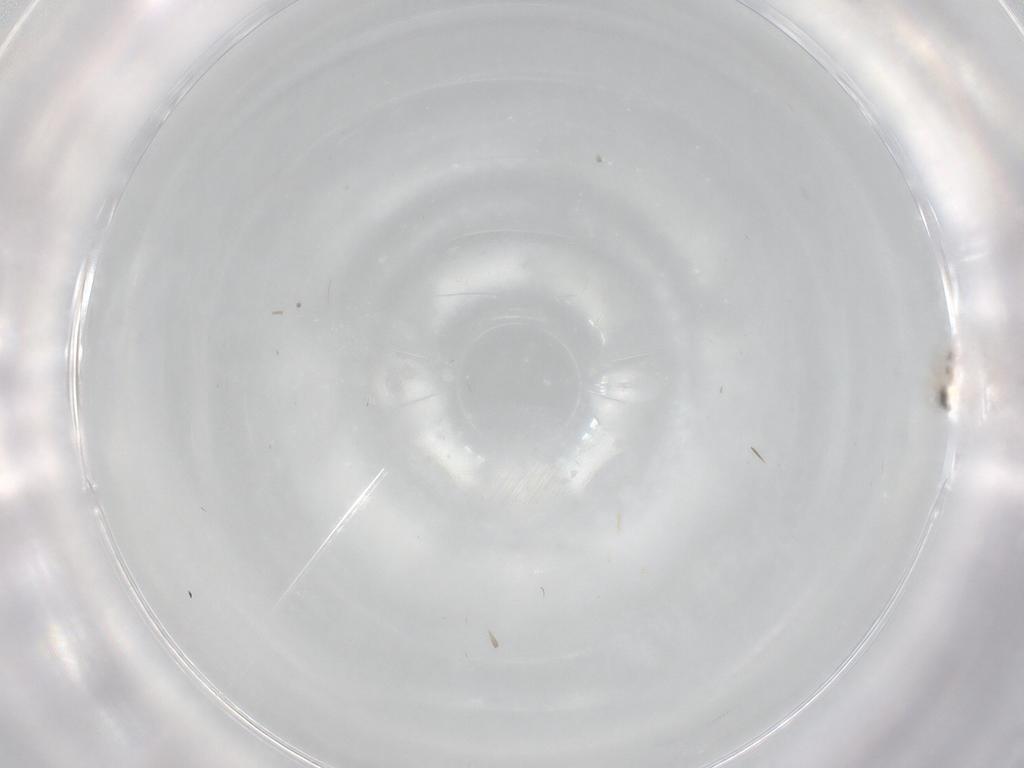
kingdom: Animalia
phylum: Arthropoda
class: Insecta
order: Hymenoptera
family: Mymaridae
